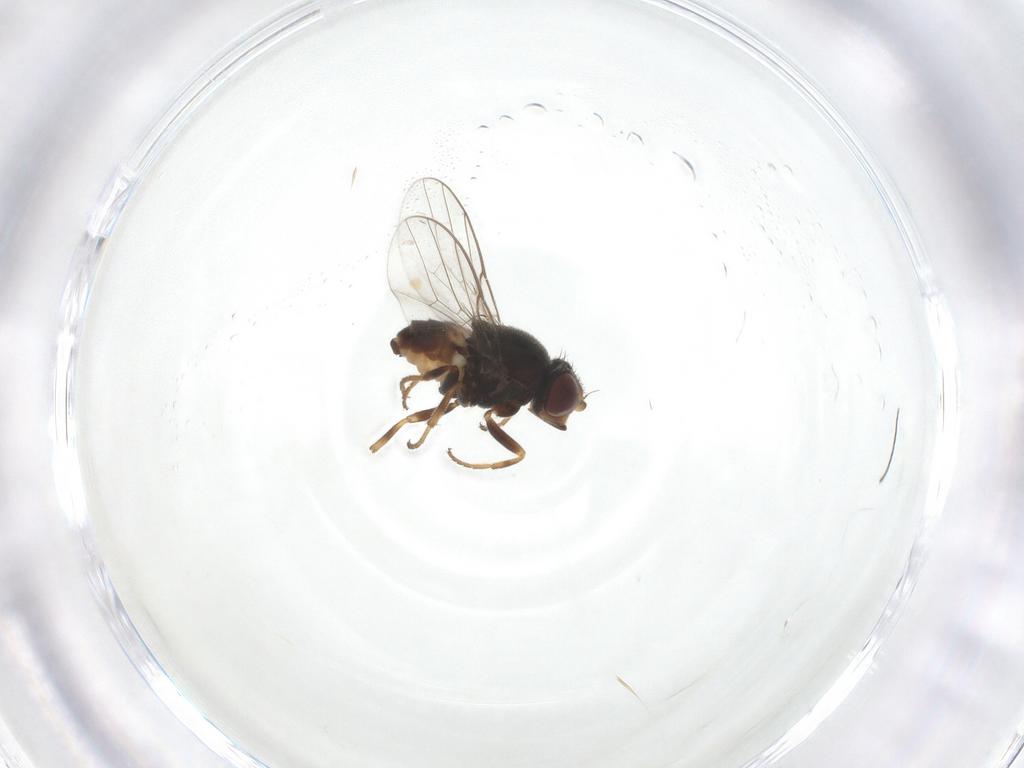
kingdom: Animalia
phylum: Arthropoda
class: Insecta
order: Diptera
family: Chloropidae
